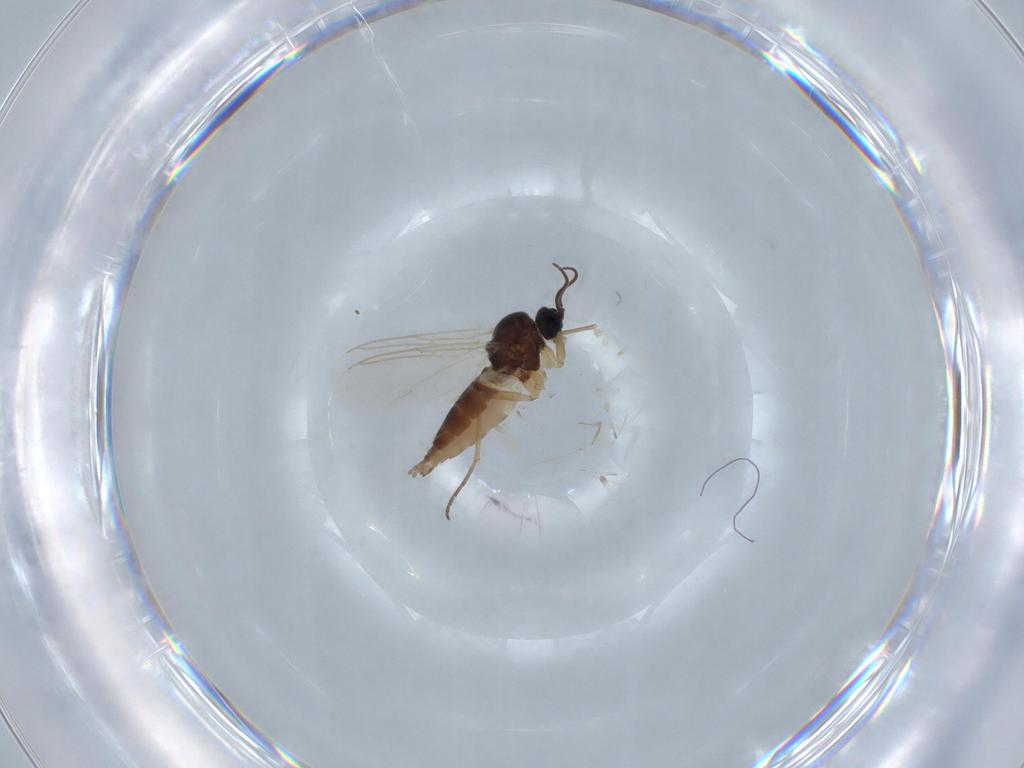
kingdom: Animalia
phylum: Arthropoda
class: Insecta
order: Diptera
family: Sciaridae
